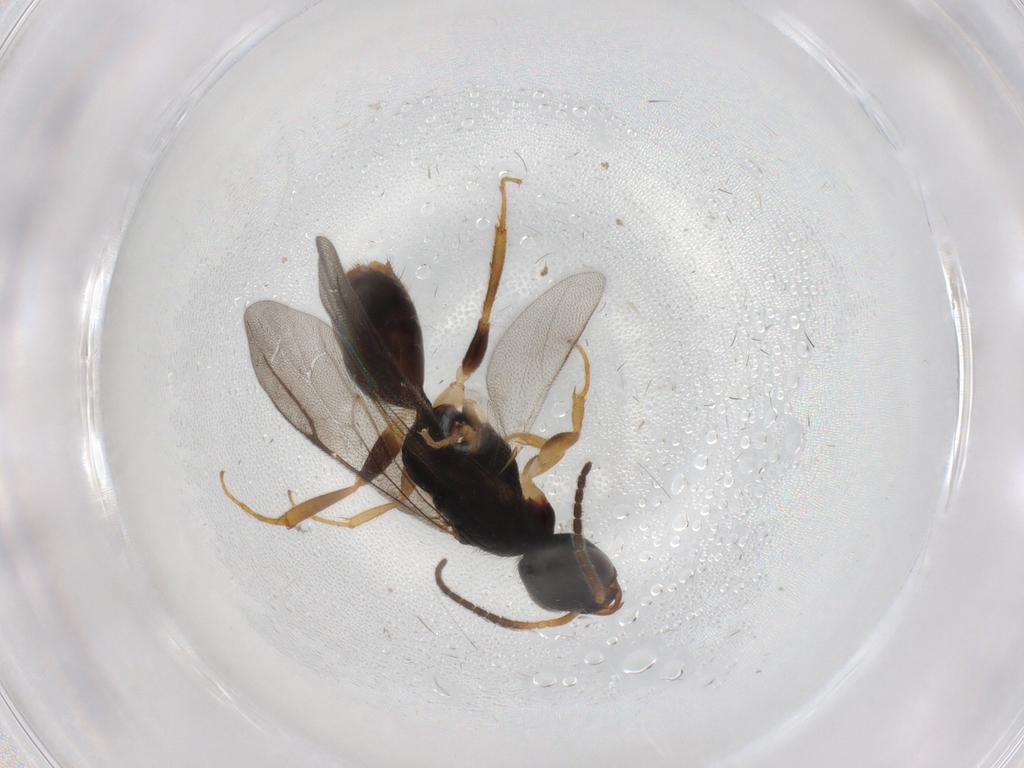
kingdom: Animalia
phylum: Arthropoda
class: Insecta
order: Hymenoptera
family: Bethylidae
